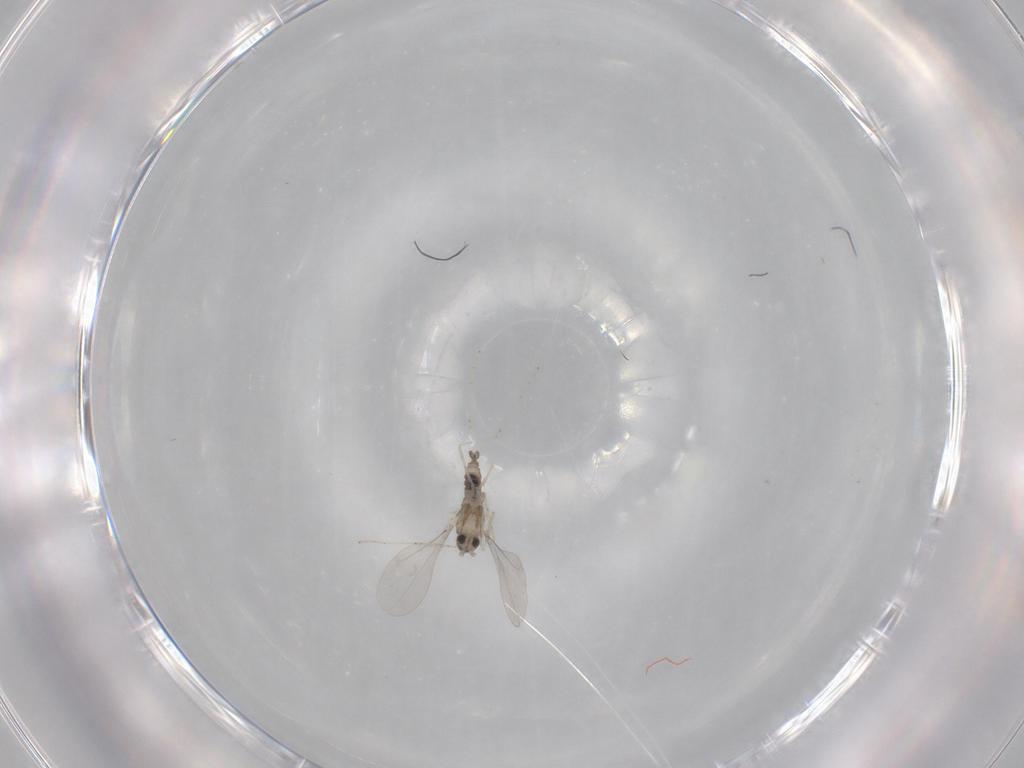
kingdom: Animalia
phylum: Arthropoda
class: Insecta
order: Diptera
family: Cecidomyiidae
